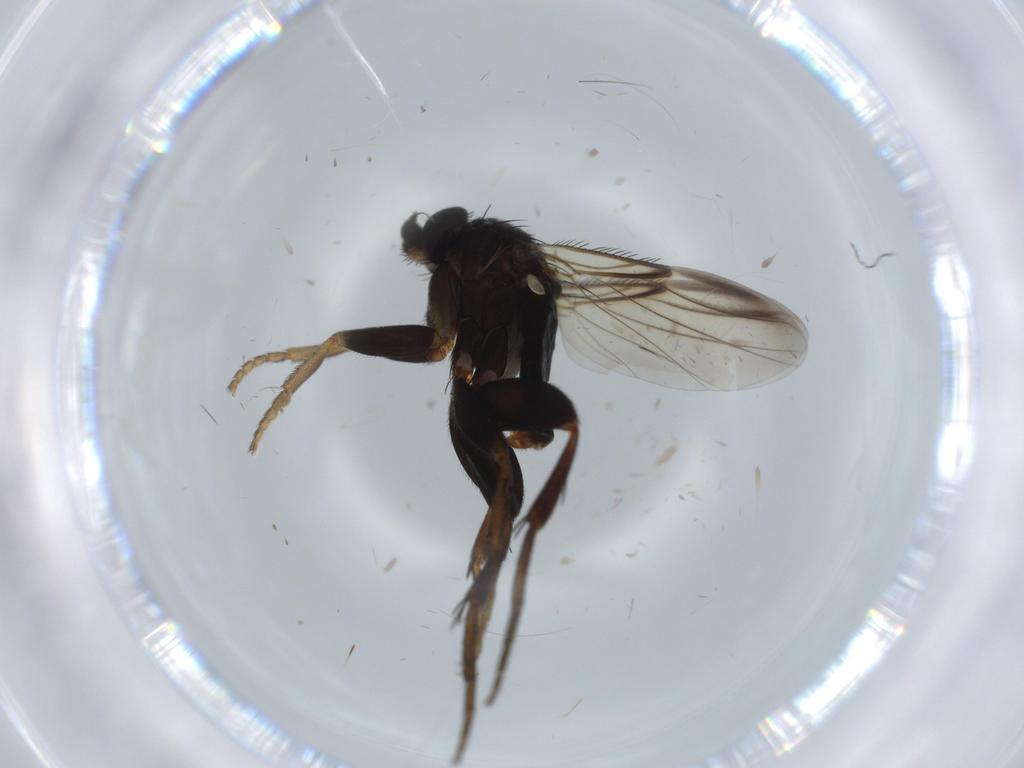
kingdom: Animalia
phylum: Arthropoda
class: Insecta
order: Diptera
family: Phoridae
